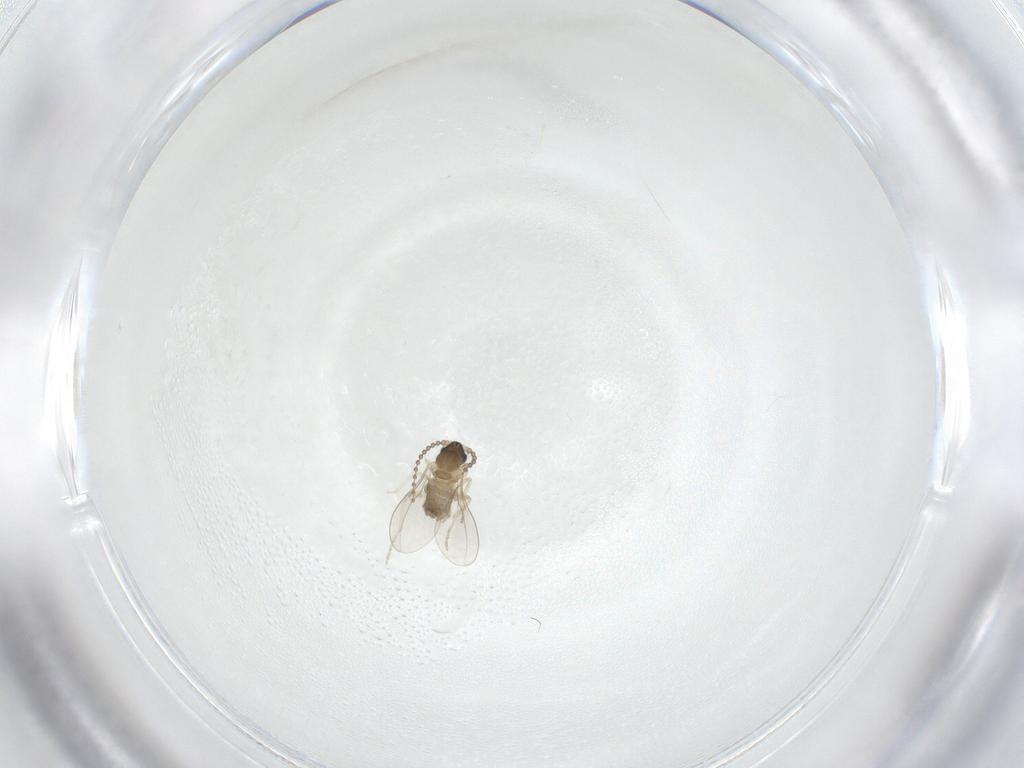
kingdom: Animalia
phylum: Arthropoda
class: Insecta
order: Diptera
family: Cecidomyiidae
